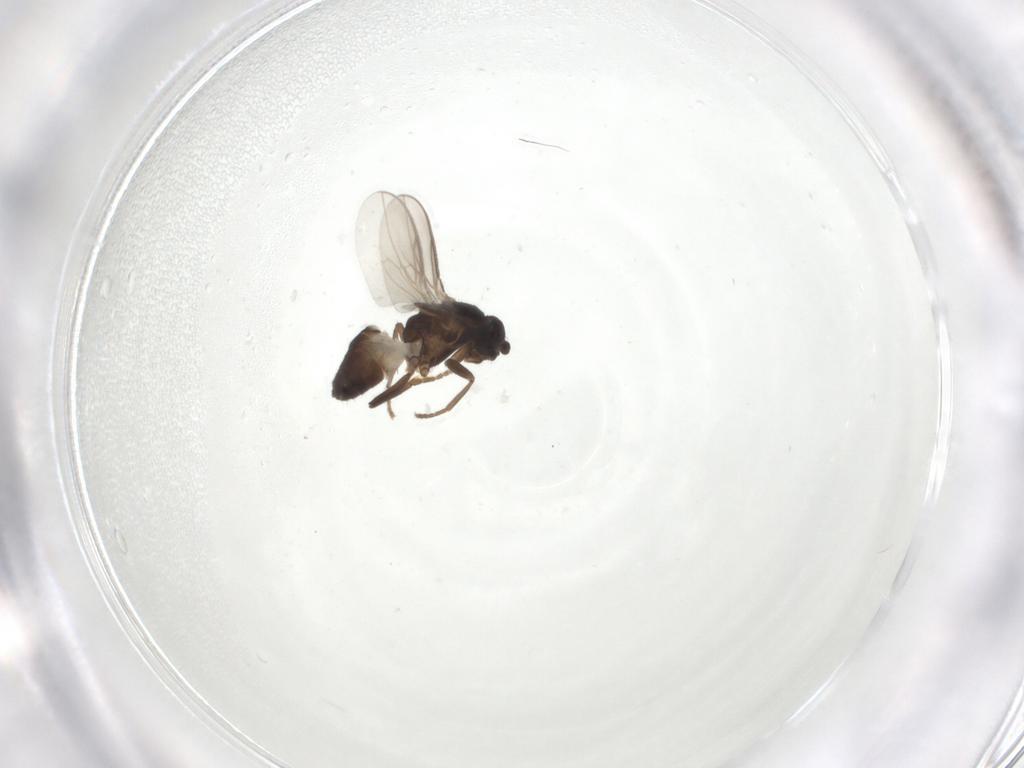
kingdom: Animalia
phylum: Arthropoda
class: Insecta
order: Diptera
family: Sphaeroceridae
